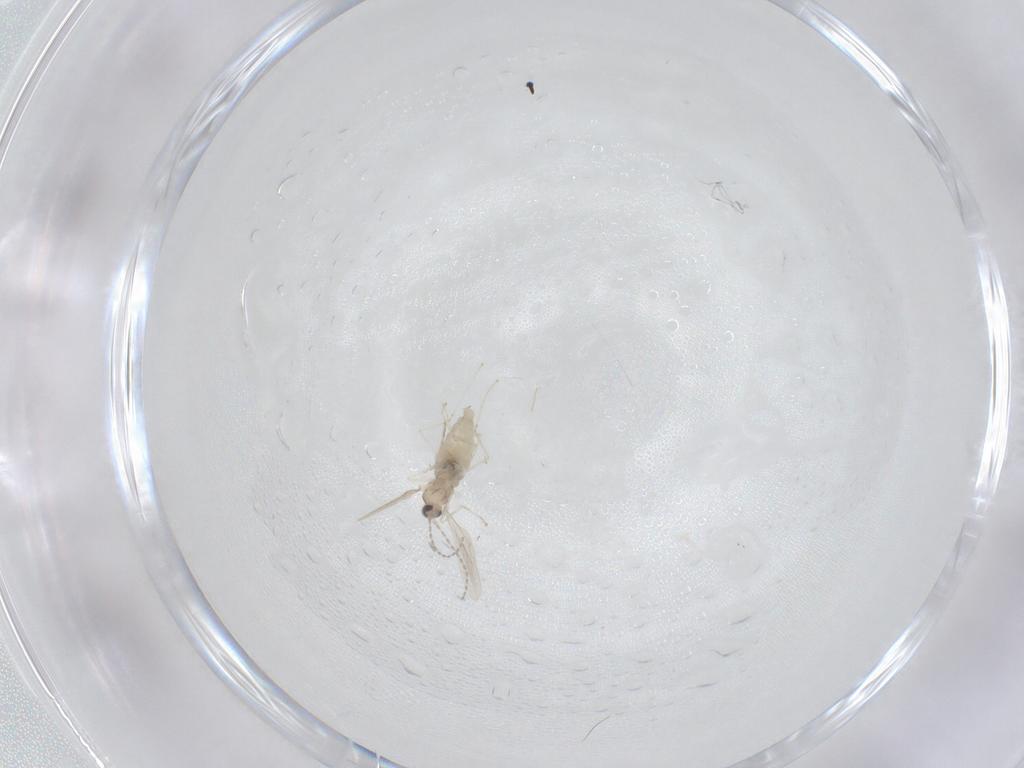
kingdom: Animalia
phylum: Arthropoda
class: Insecta
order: Diptera
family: Cecidomyiidae
